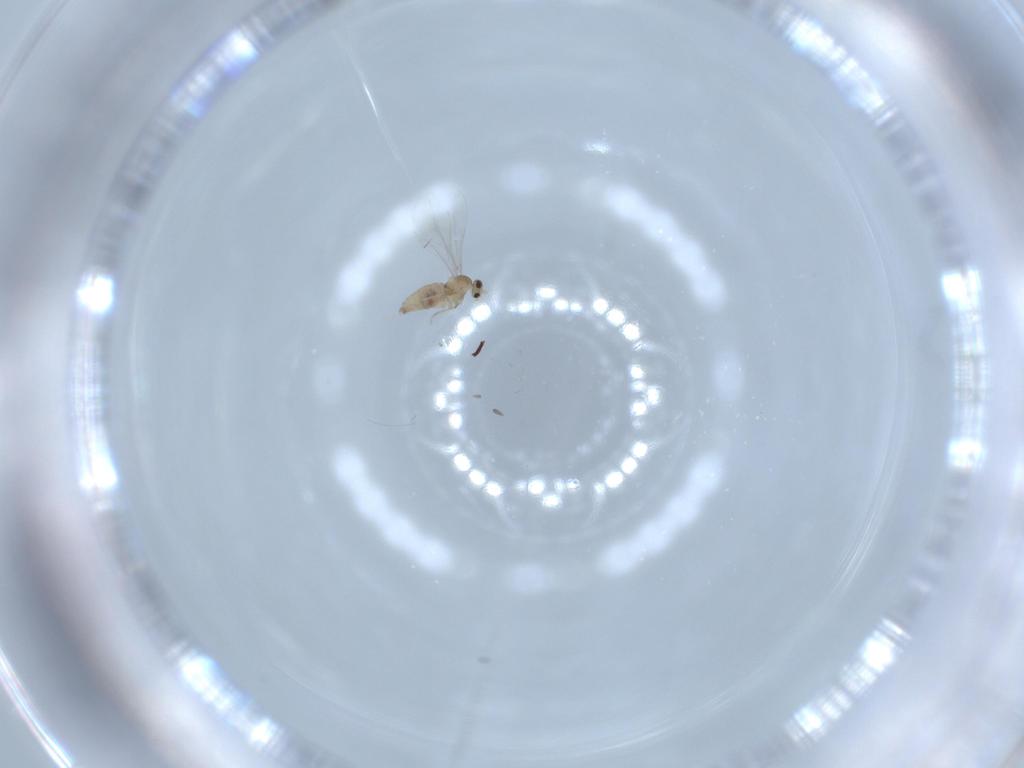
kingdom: Animalia
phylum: Arthropoda
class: Insecta
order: Diptera
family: Cecidomyiidae
